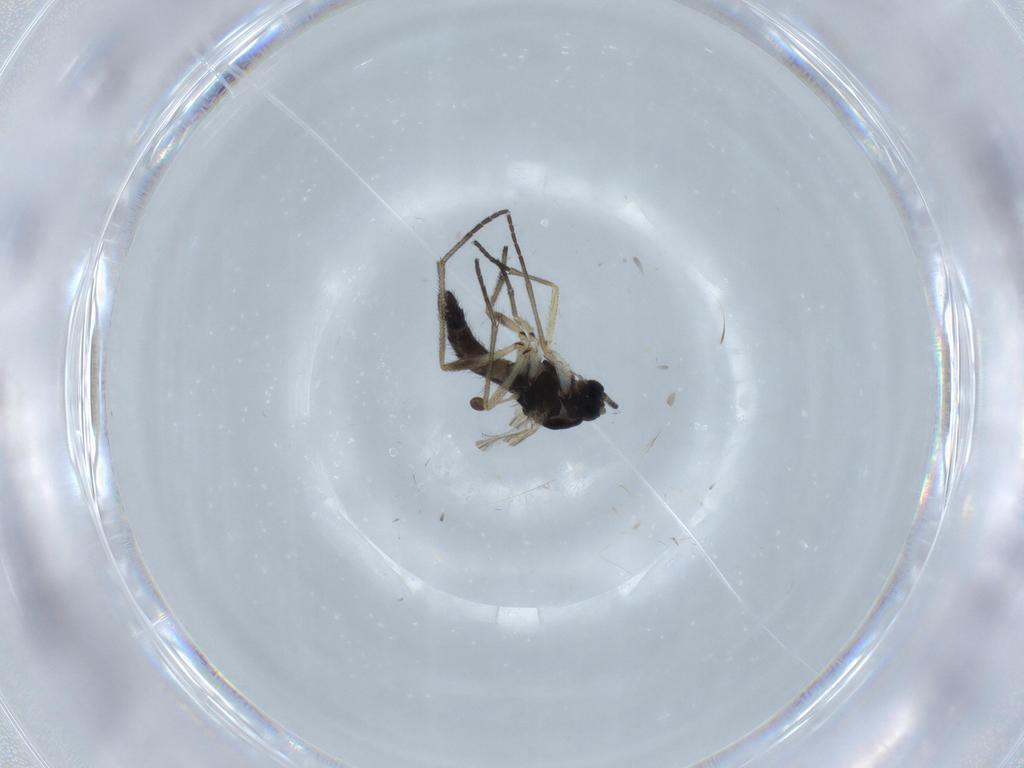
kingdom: Animalia
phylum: Arthropoda
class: Insecta
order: Diptera
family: Sciaridae
